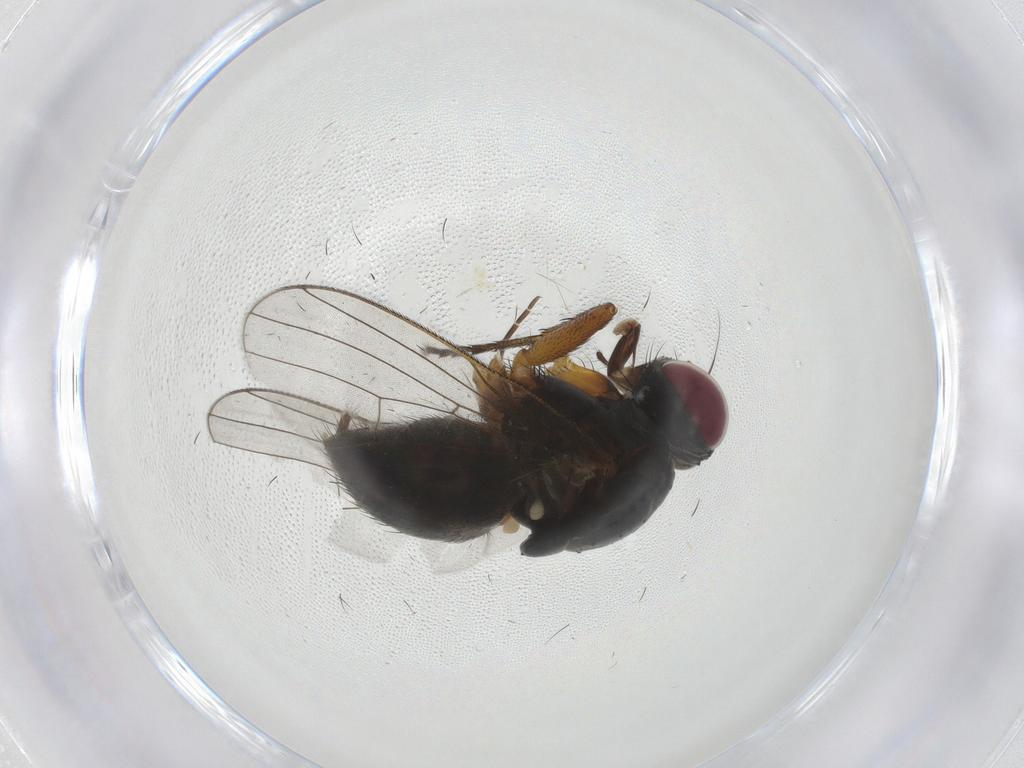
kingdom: Animalia
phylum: Arthropoda
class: Insecta
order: Diptera
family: Muscidae
